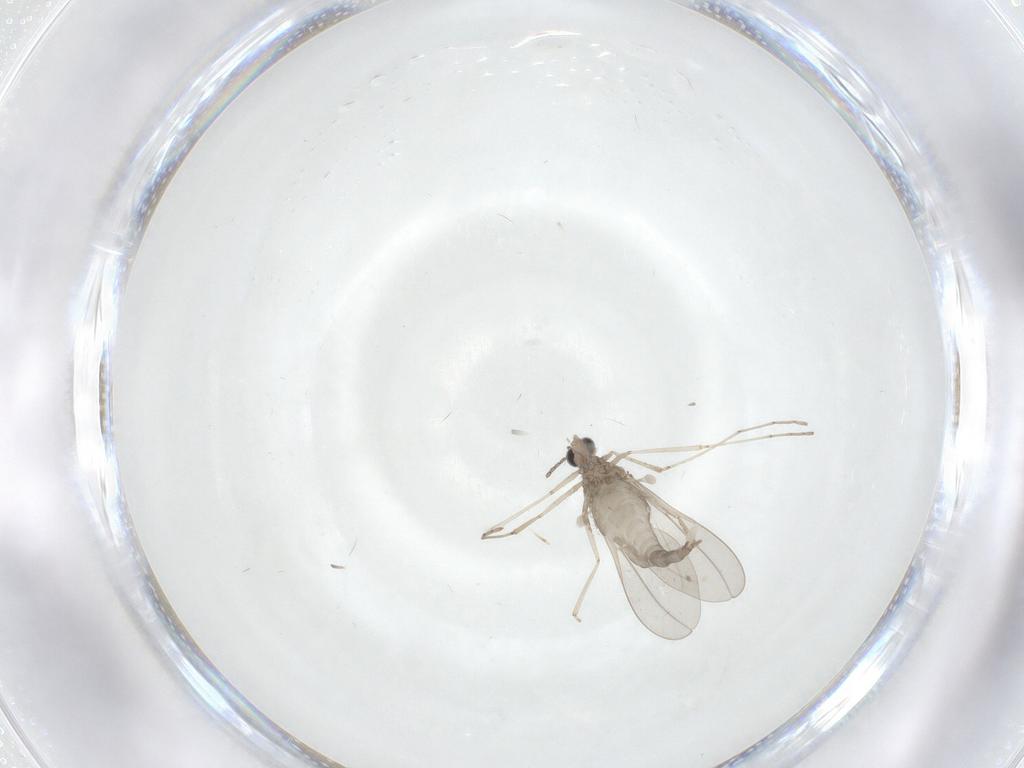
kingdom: Animalia
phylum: Arthropoda
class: Insecta
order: Diptera
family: Cecidomyiidae
